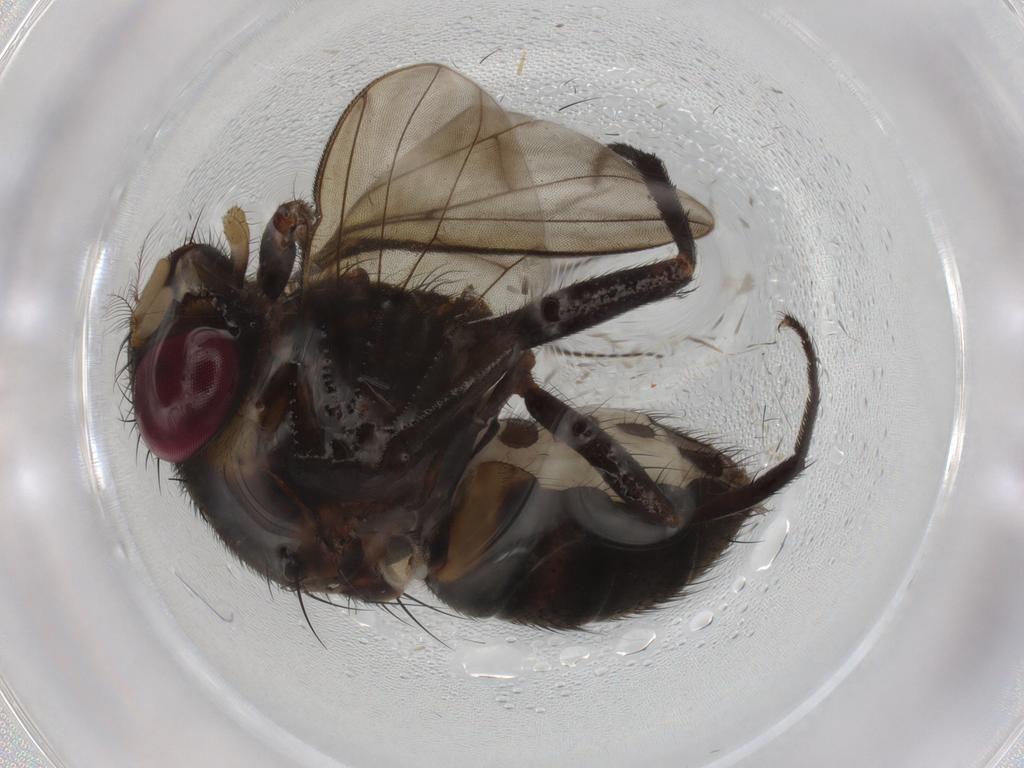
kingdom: Animalia
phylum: Arthropoda
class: Insecta
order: Diptera
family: Muscidae
